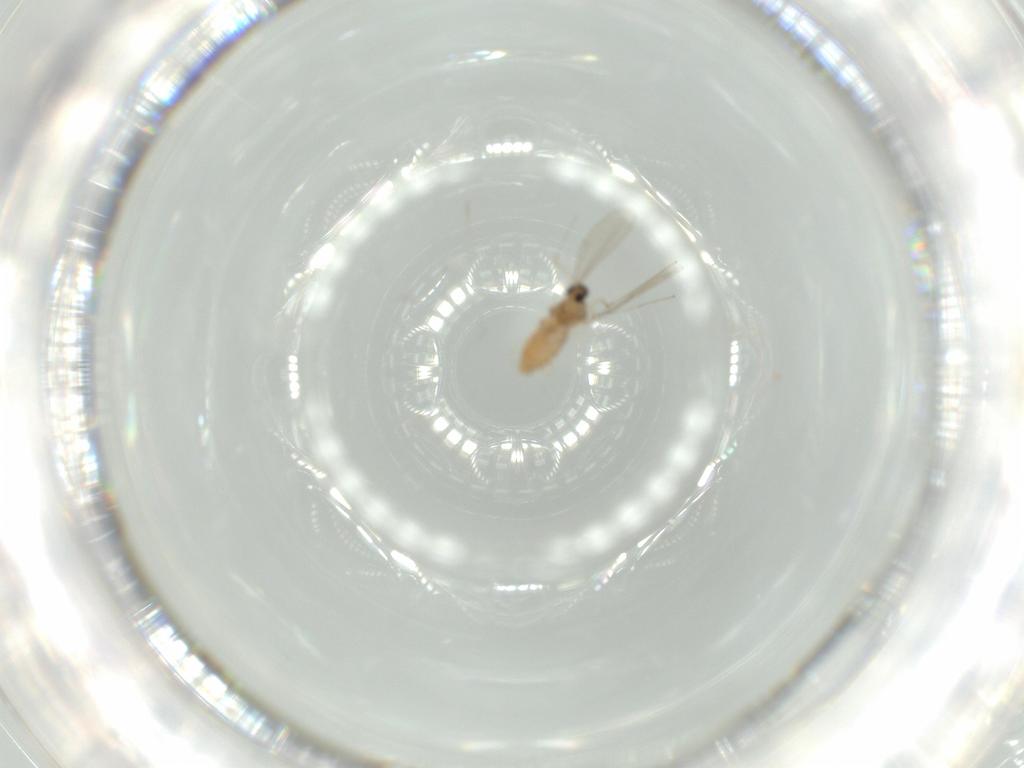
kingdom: Animalia
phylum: Arthropoda
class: Insecta
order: Diptera
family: Cecidomyiidae
